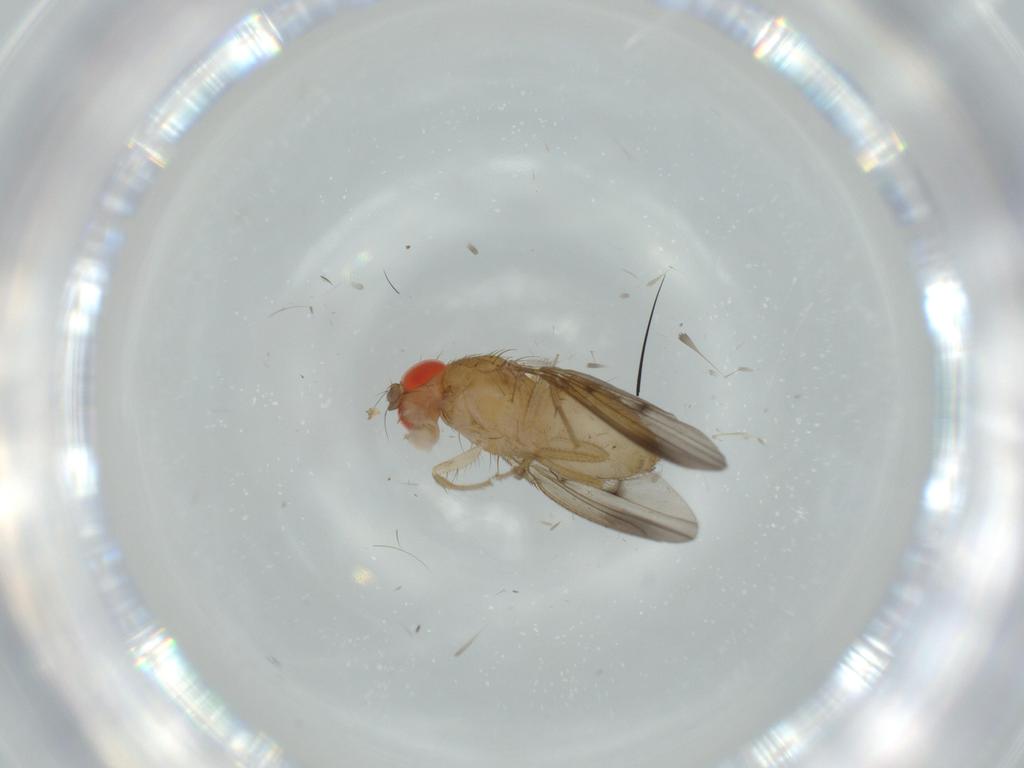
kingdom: Animalia
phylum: Arthropoda
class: Insecta
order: Diptera
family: Drosophilidae
